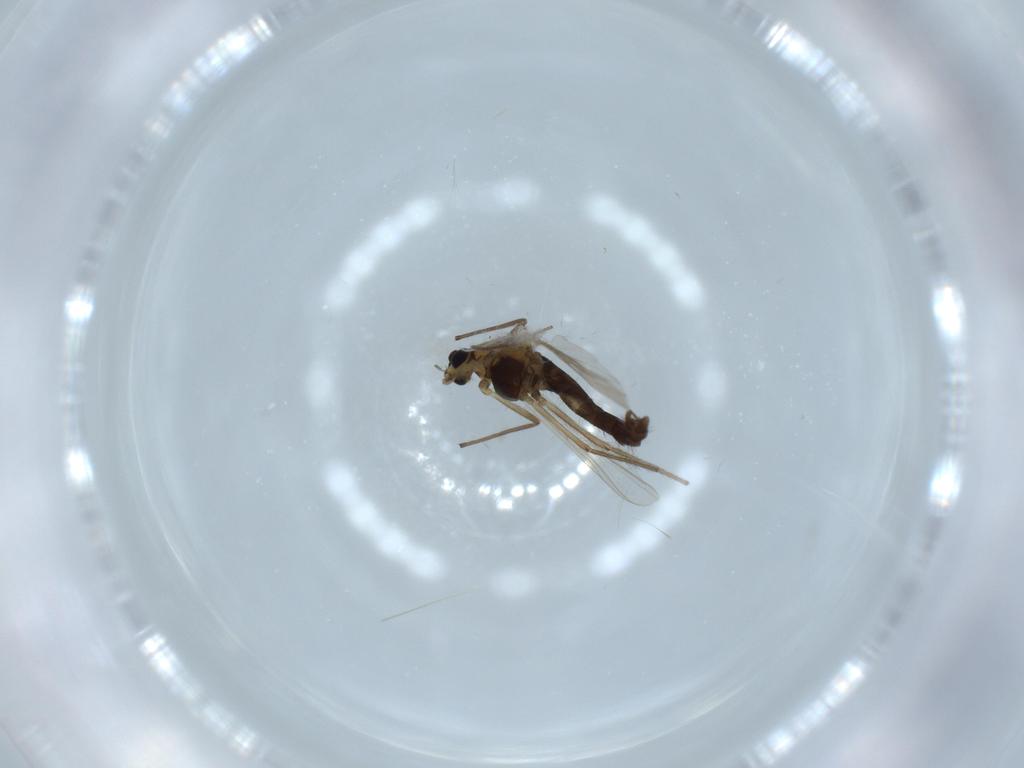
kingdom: Animalia
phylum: Arthropoda
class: Insecta
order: Diptera
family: Chironomidae
